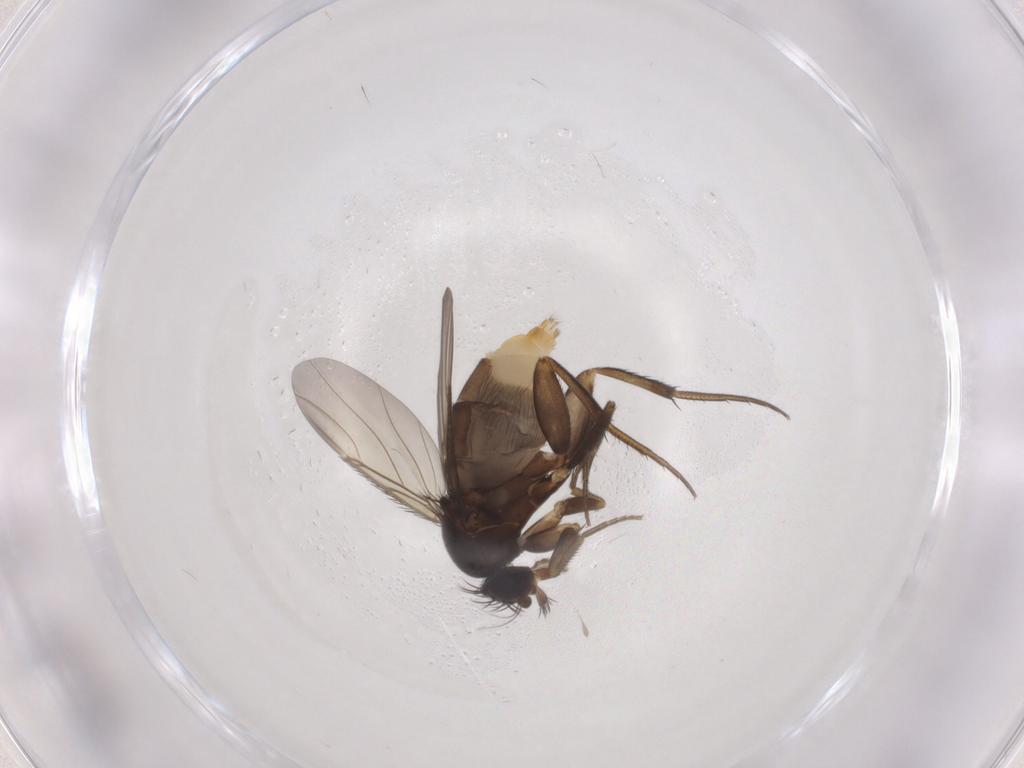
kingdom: Animalia
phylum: Arthropoda
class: Insecta
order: Diptera
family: Phoridae
